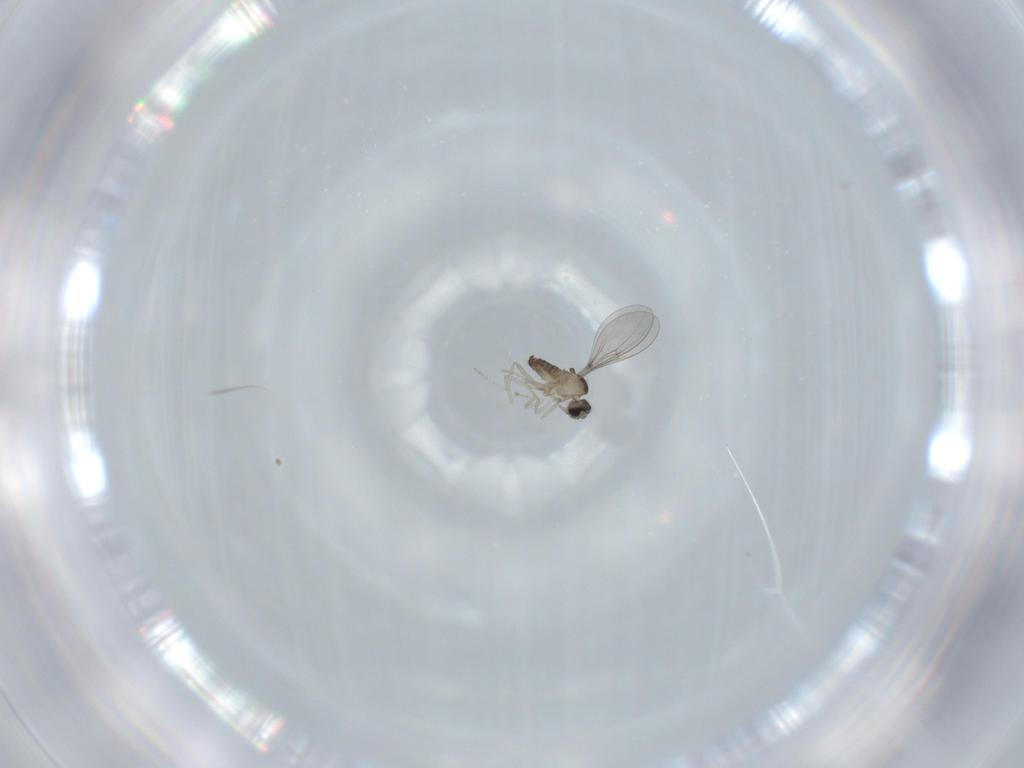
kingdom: Animalia
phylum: Arthropoda
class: Insecta
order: Diptera
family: Cecidomyiidae
